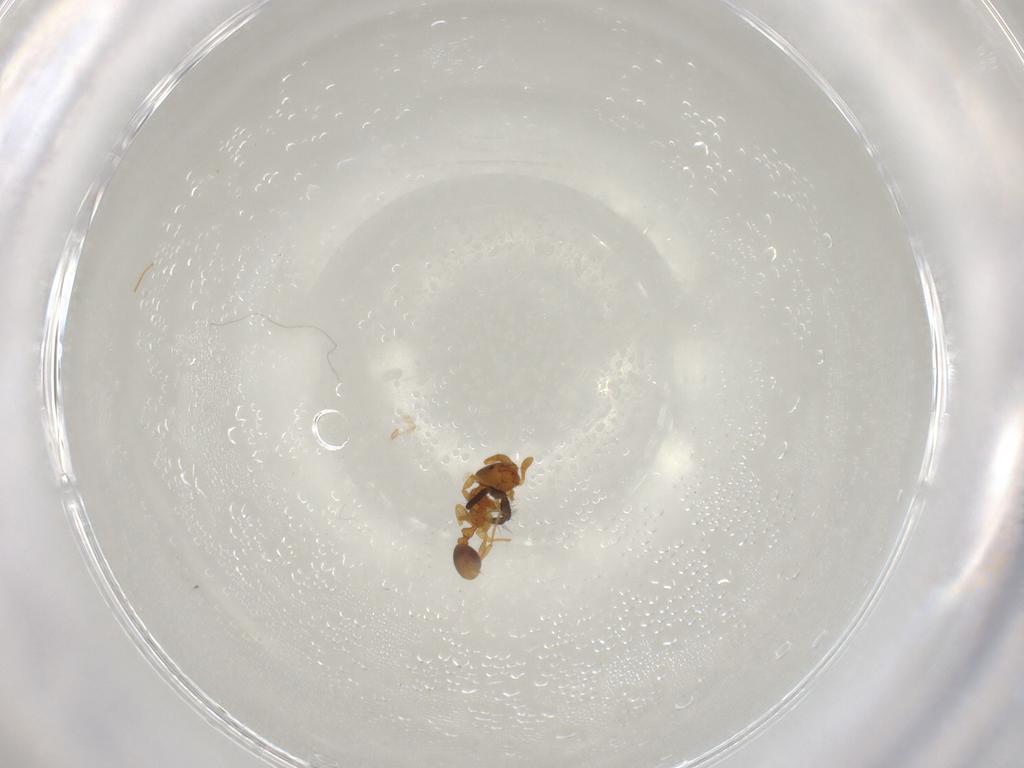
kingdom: Animalia
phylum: Arthropoda
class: Insecta
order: Hymenoptera
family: Formicidae
